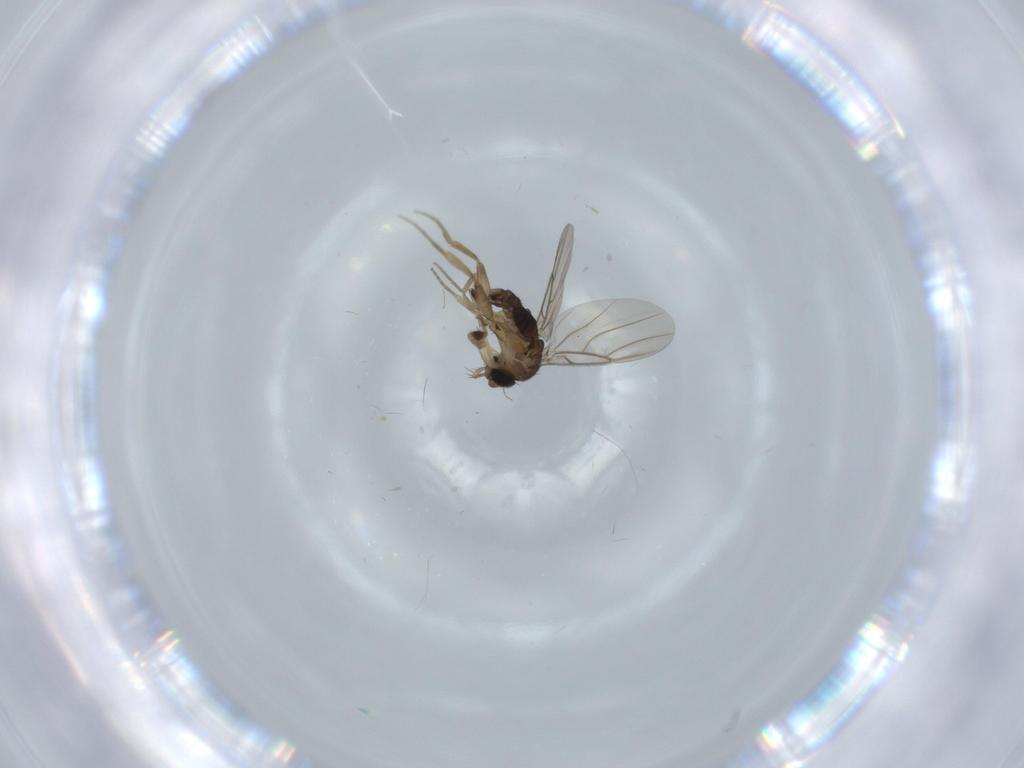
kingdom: Animalia
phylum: Arthropoda
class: Insecta
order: Diptera
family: Phoridae
